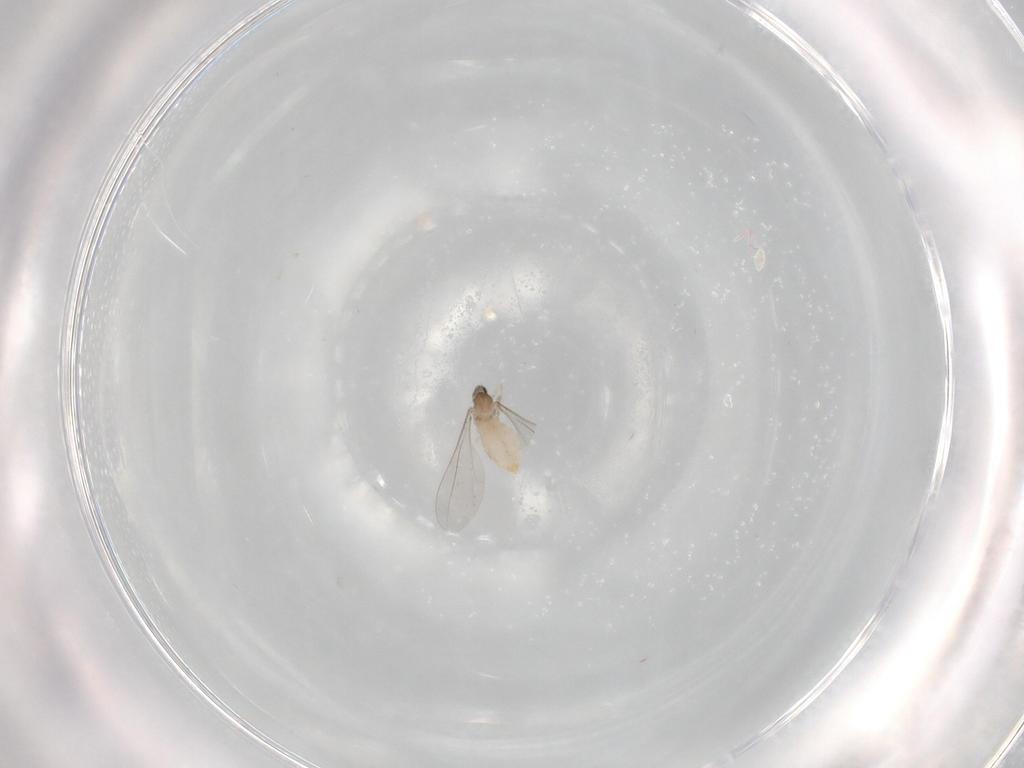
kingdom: Animalia
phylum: Arthropoda
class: Insecta
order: Diptera
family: Cecidomyiidae
